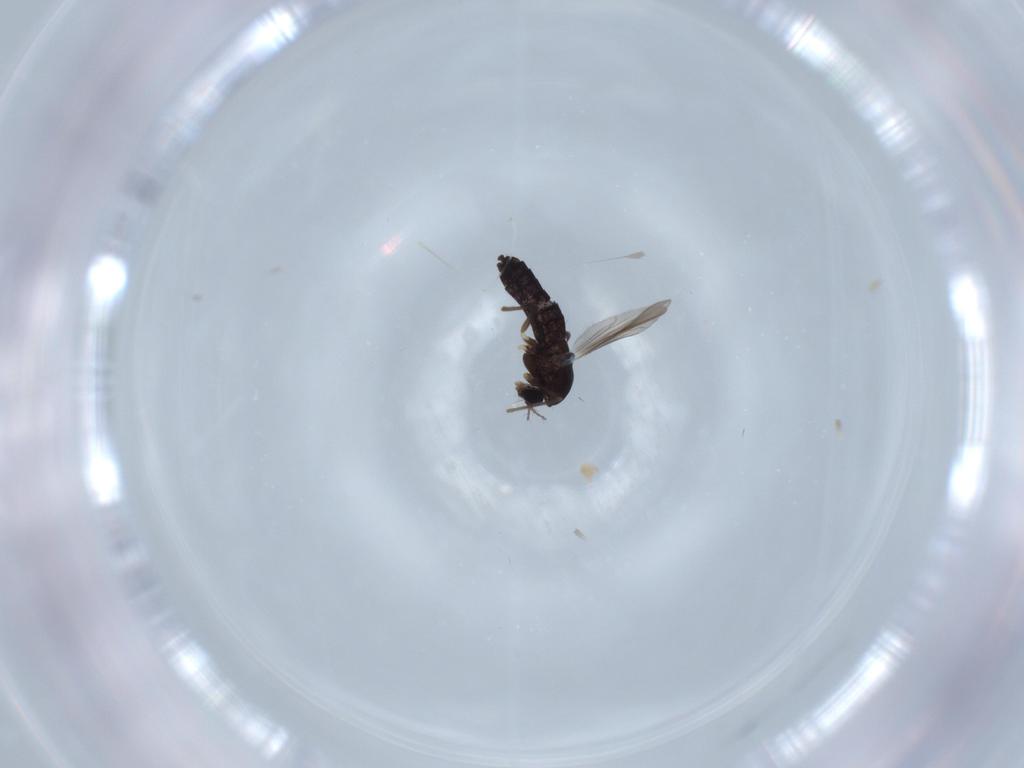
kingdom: Animalia
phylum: Arthropoda
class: Insecta
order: Diptera
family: Chironomidae
